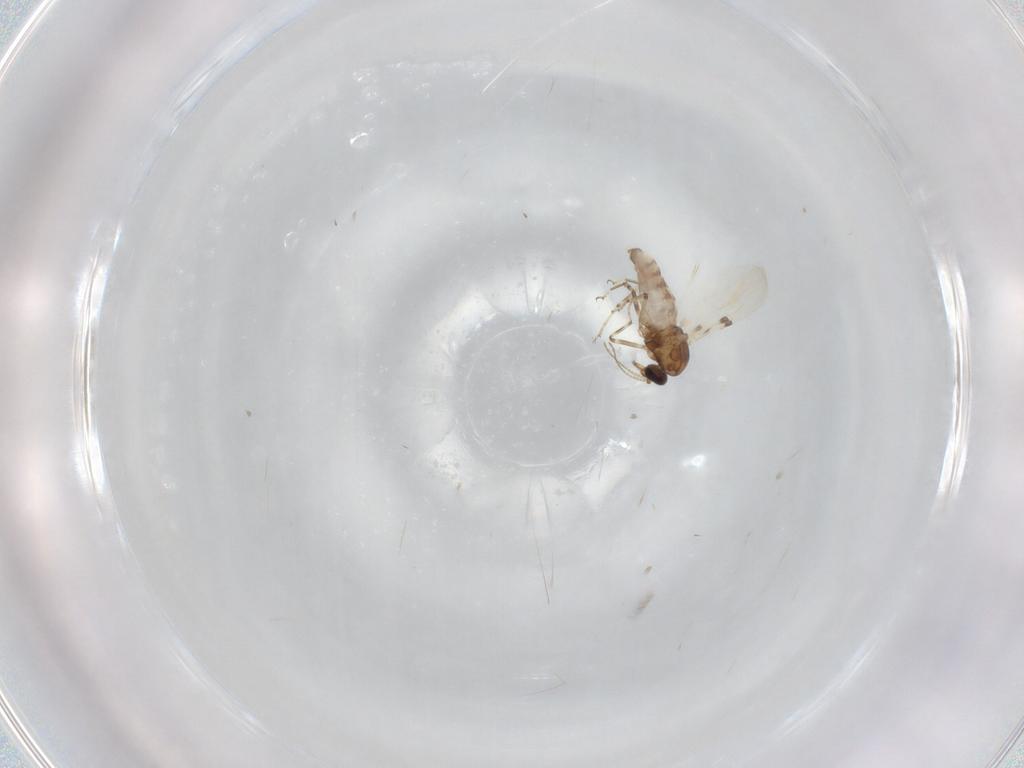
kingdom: Animalia
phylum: Arthropoda
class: Insecta
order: Diptera
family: Ceratopogonidae
